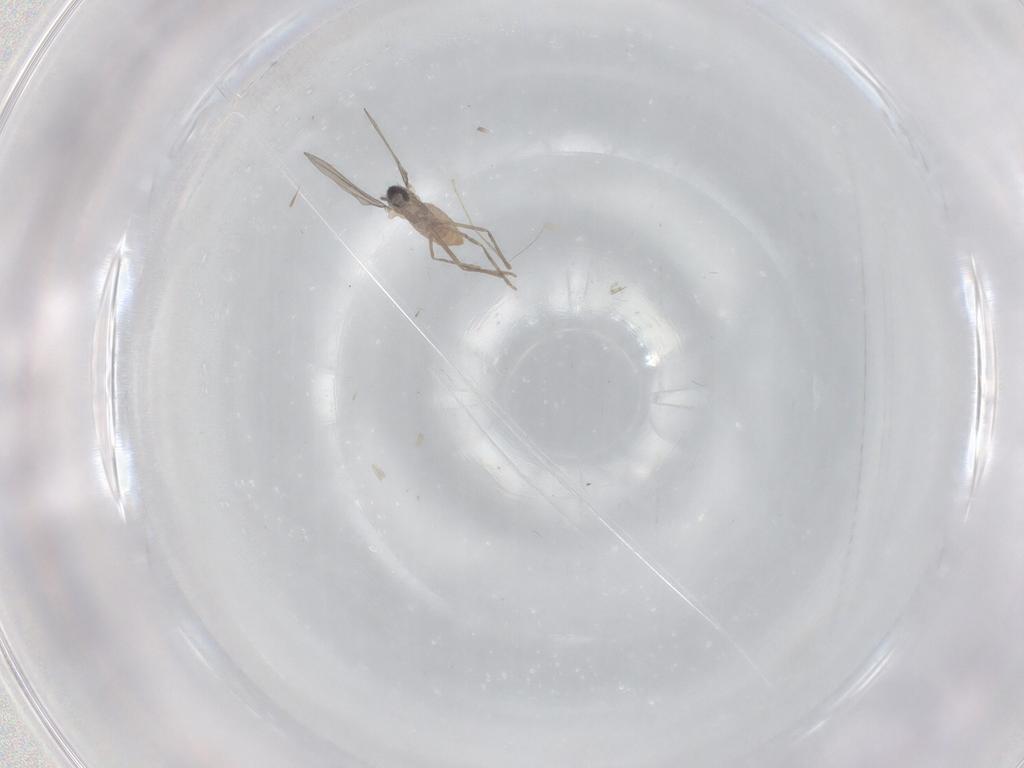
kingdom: Animalia
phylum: Arthropoda
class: Insecta
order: Diptera
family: Cecidomyiidae
